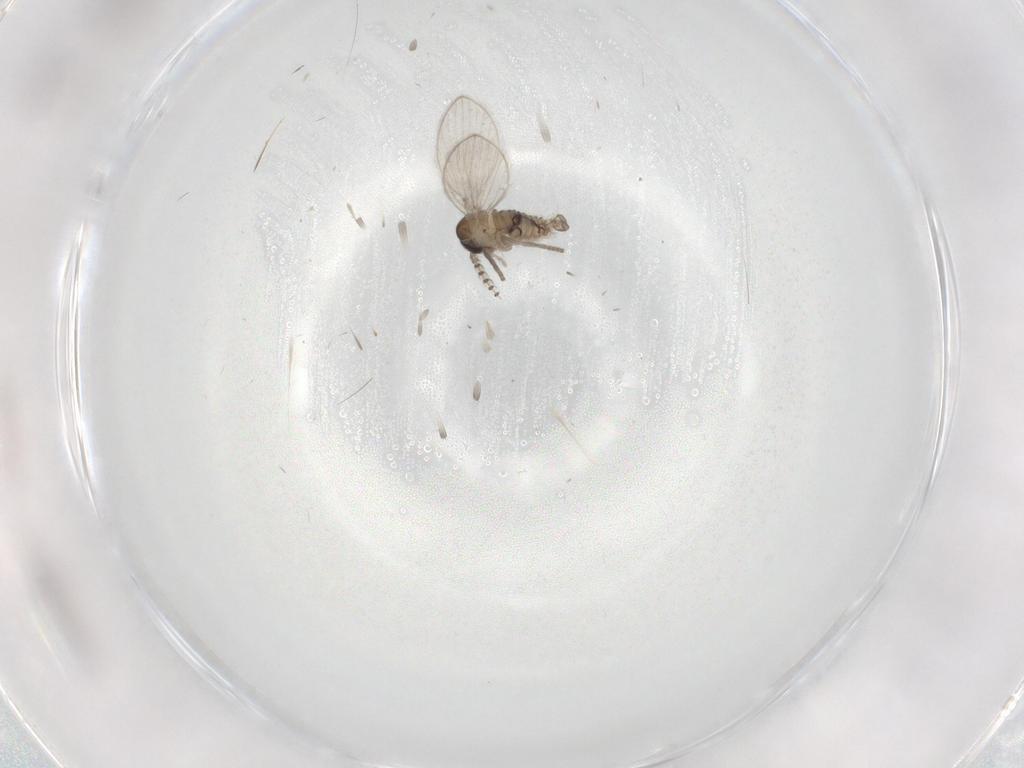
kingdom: Animalia
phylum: Arthropoda
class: Insecta
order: Diptera
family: Psychodidae
